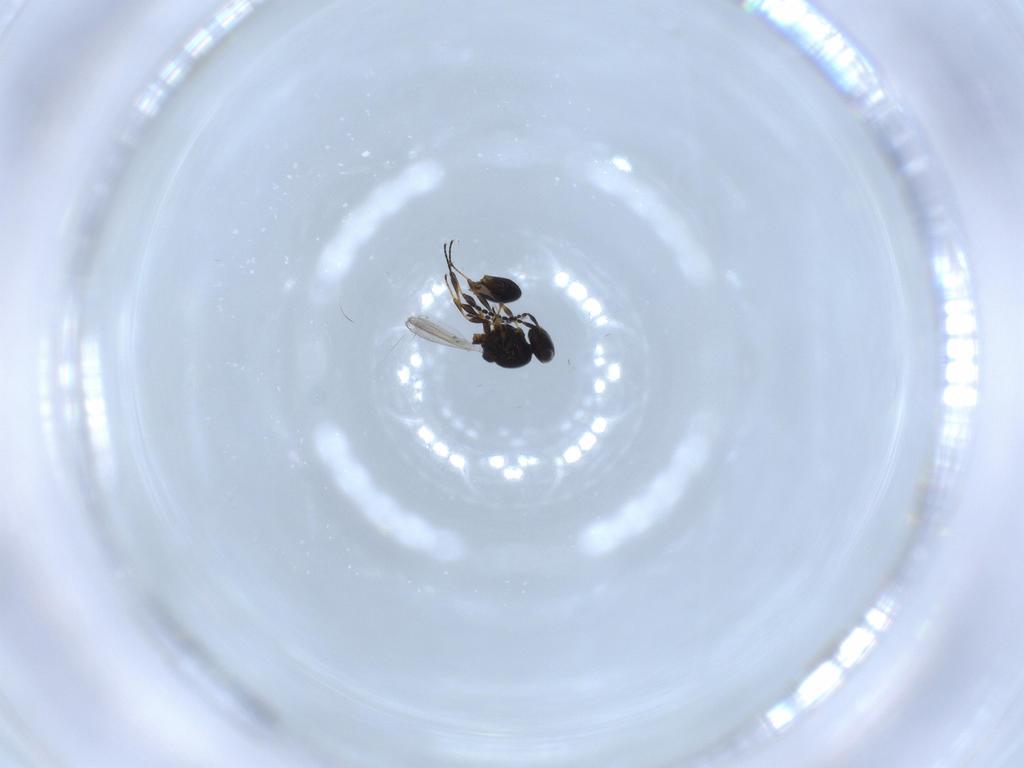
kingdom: Animalia
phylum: Arthropoda
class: Insecta
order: Hymenoptera
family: Platygastridae
